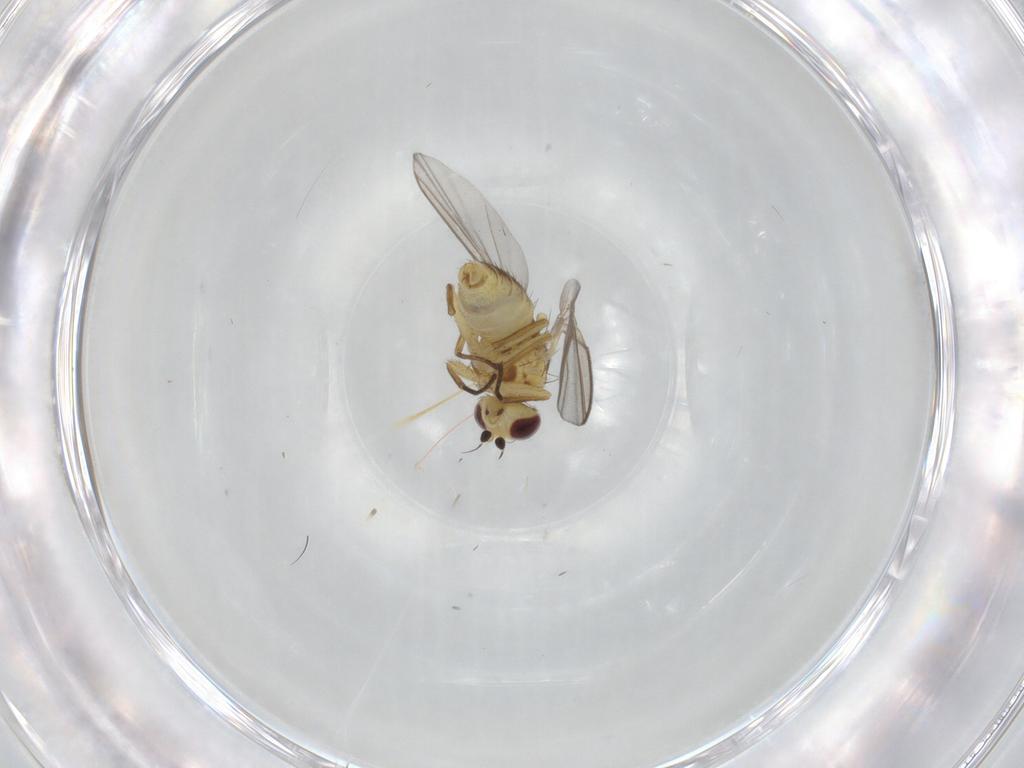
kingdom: Animalia
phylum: Arthropoda
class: Insecta
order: Diptera
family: Agromyzidae
